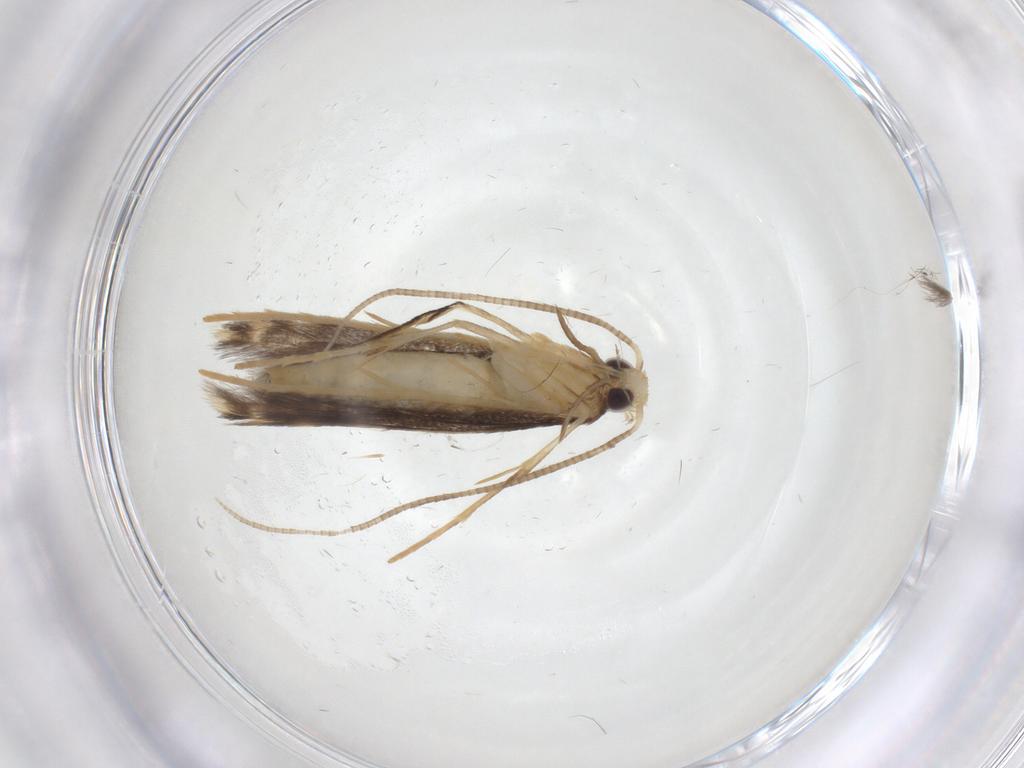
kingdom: Animalia
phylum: Arthropoda
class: Insecta
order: Lepidoptera
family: Gracillariidae
